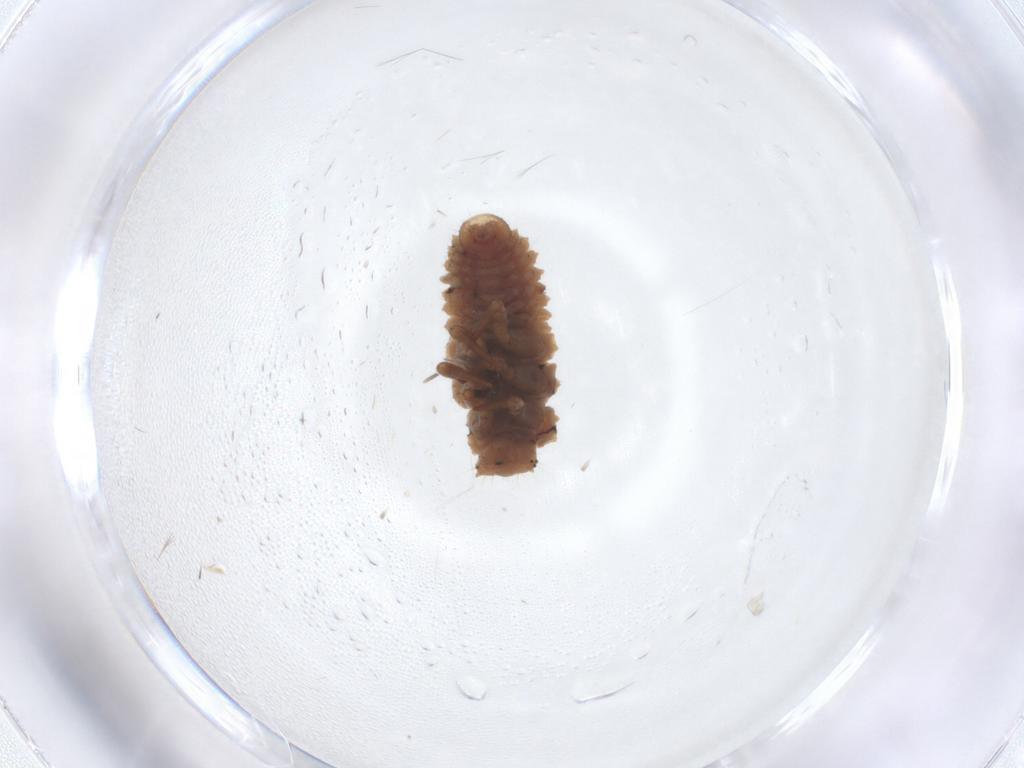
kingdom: Animalia
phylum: Arthropoda
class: Insecta
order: Coleoptera
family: Coccinellidae
